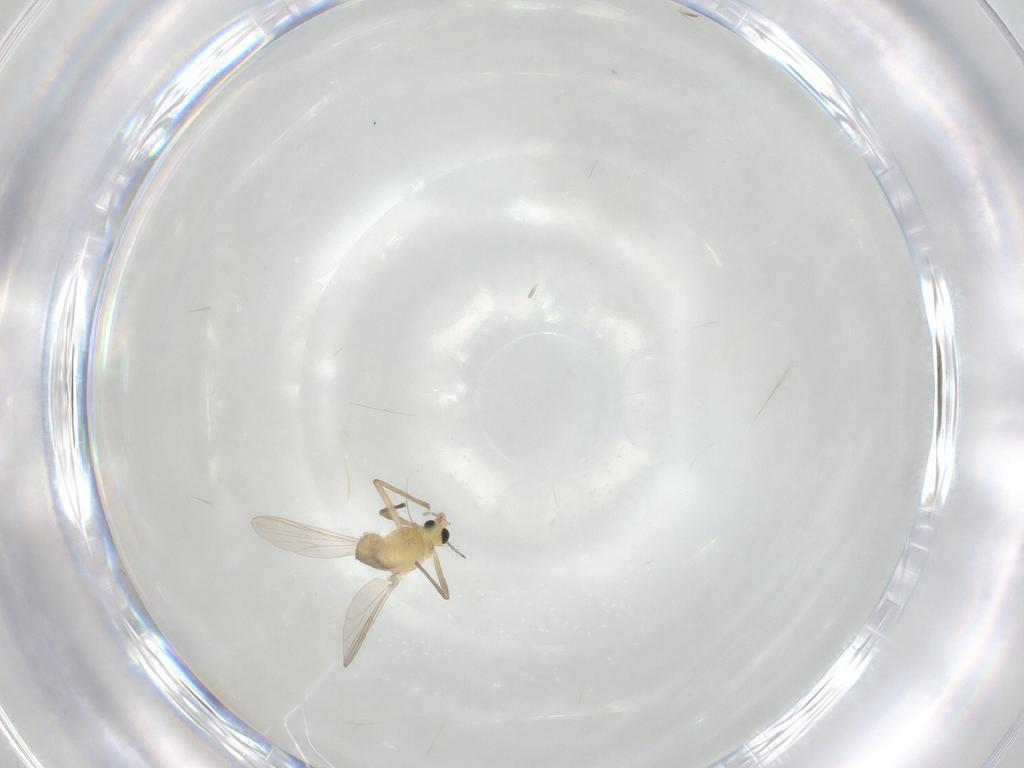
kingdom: Animalia
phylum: Arthropoda
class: Insecta
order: Diptera
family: Chironomidae
